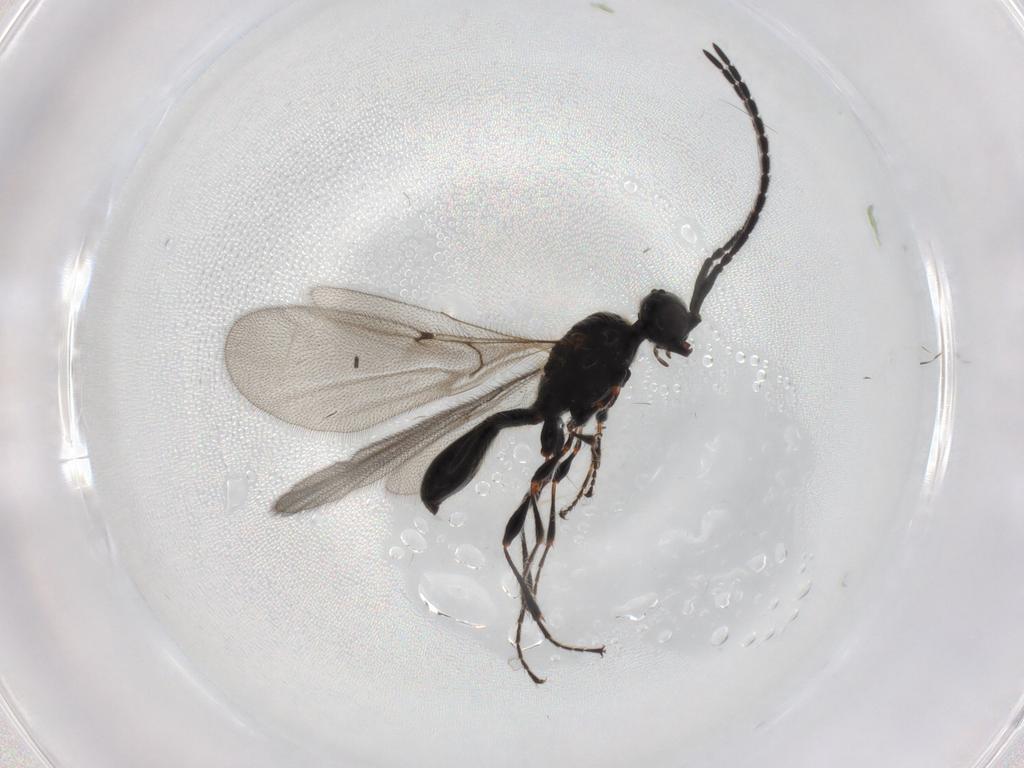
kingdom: Animalia
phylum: Arthropoda
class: Insecta
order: Hymenoptera
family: Diapriidae
